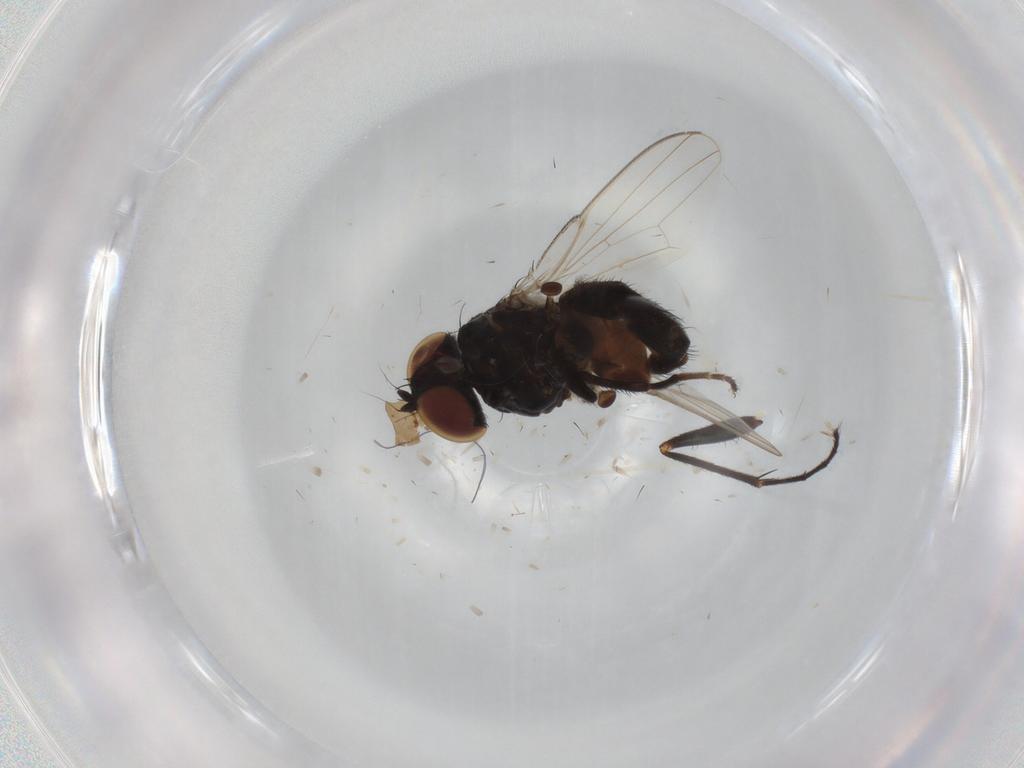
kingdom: Animalia
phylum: Arthropoda
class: Insecta
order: Diptera
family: Milichiidae
